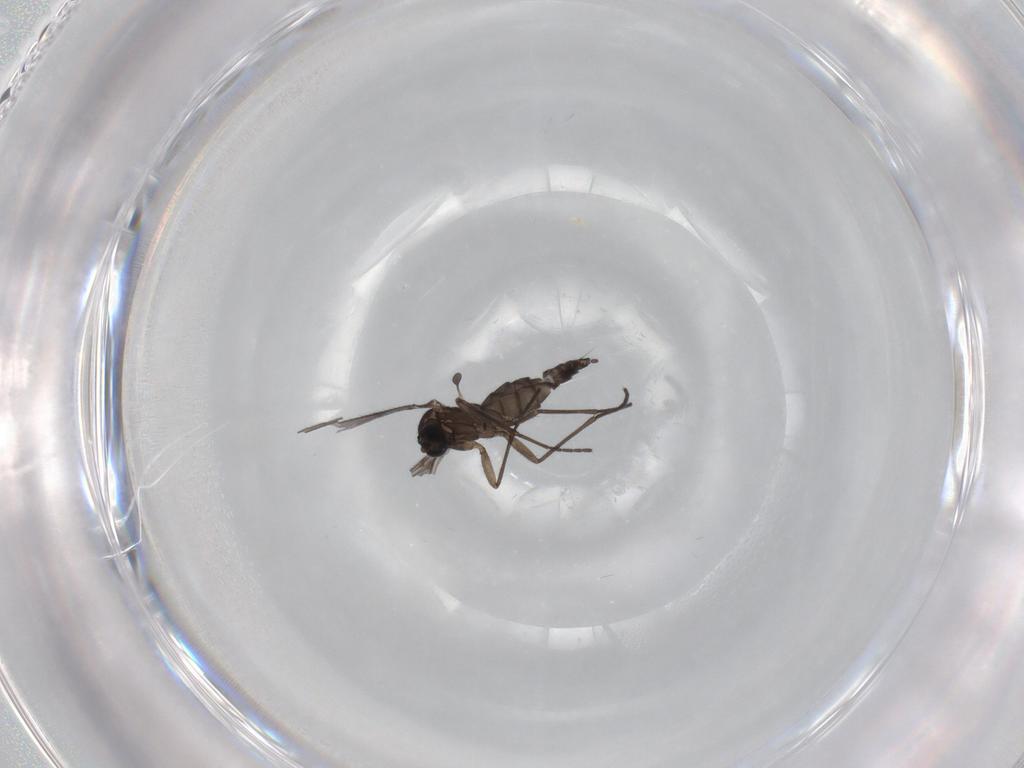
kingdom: Animalia
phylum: Arthropoda
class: Insecta
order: Diptera
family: Sciaridae
